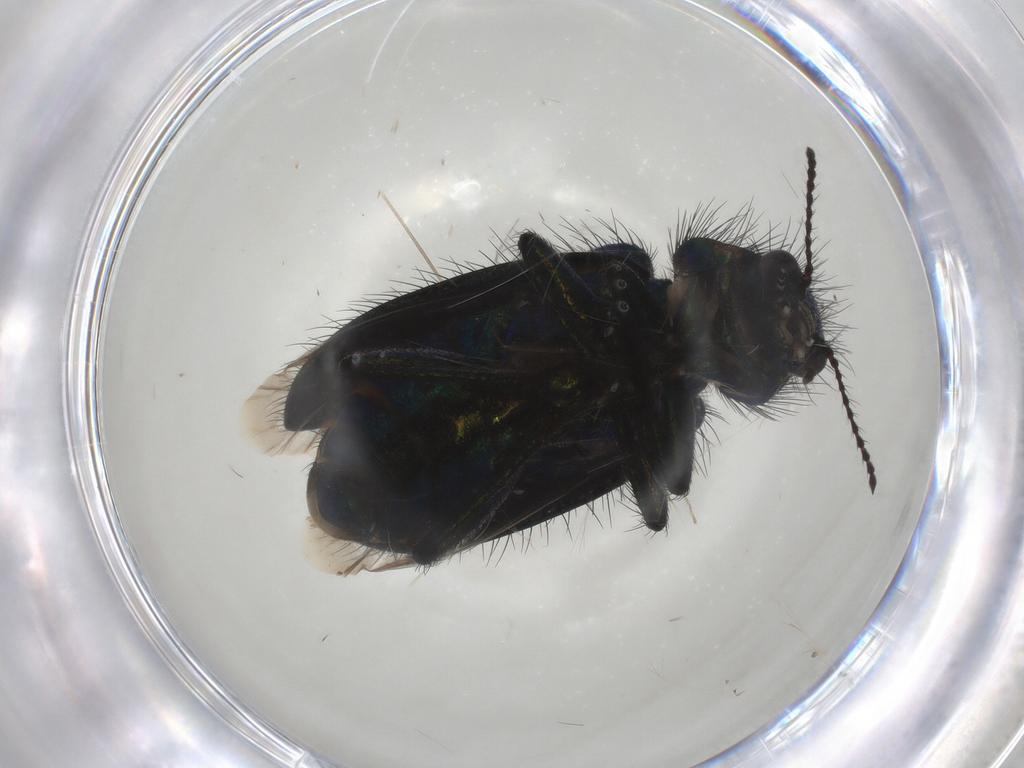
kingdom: Animalia
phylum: Arthropoda
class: Insecta
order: Coleoptera
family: Melyridae
